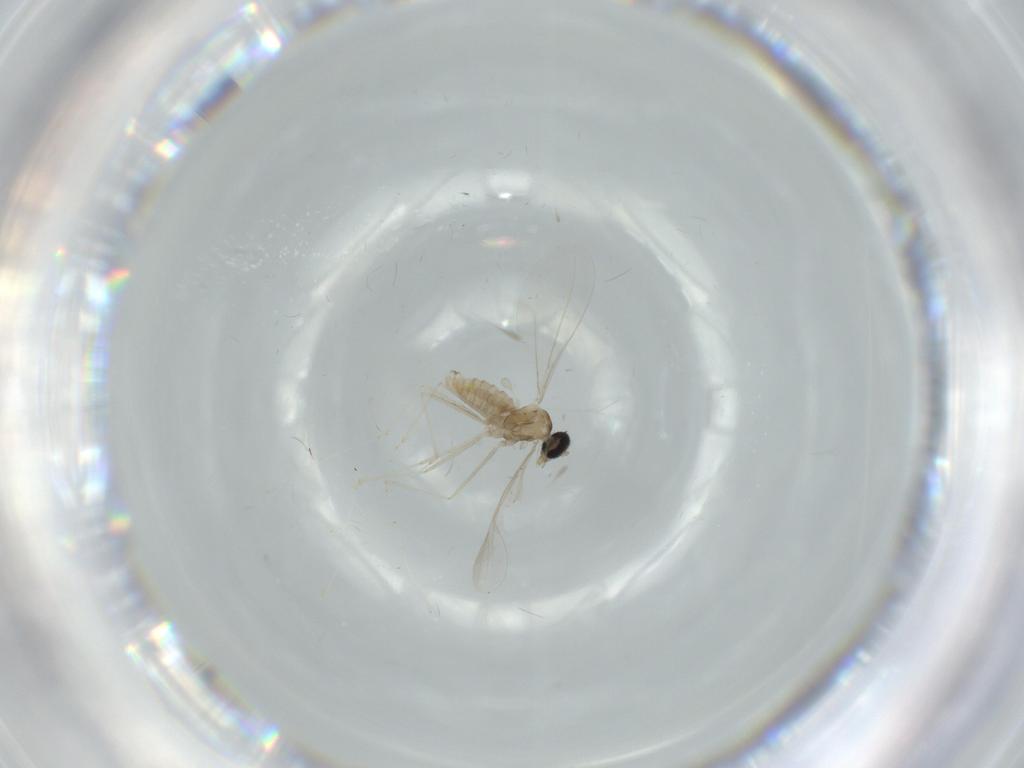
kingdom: Animalia
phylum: Arthropoda
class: Insecta
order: Diptera
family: Cecidomyiidae
